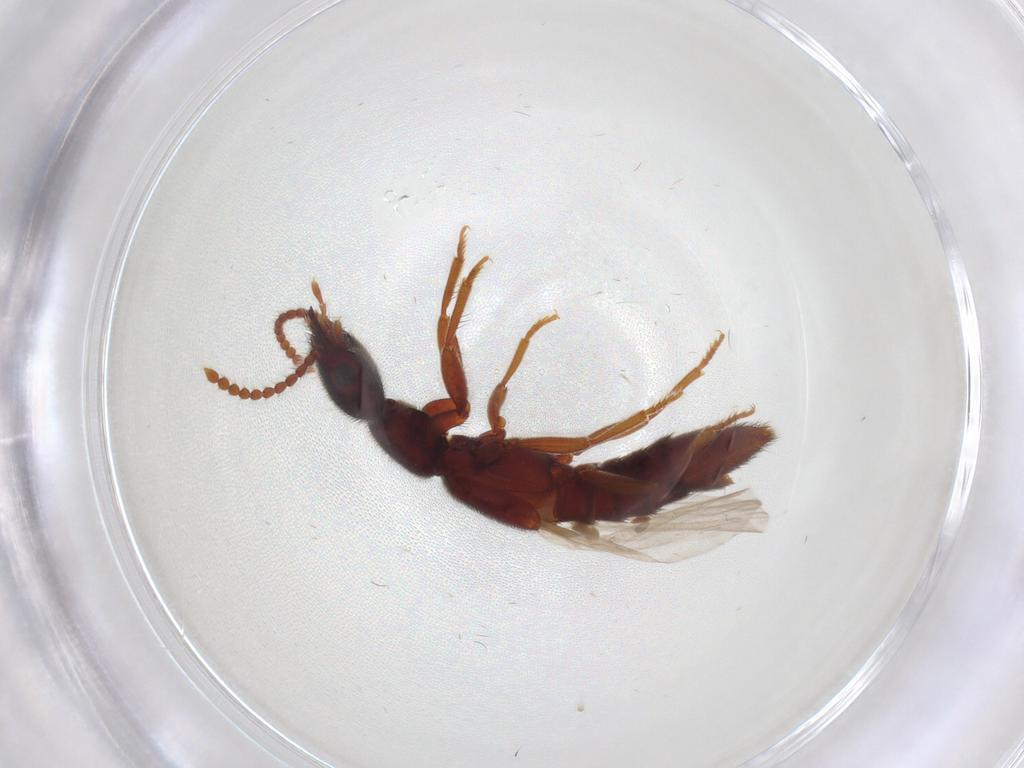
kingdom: Animalia
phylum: Arthropoda
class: Insecta
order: Coleoptera
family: Staphylinidae
